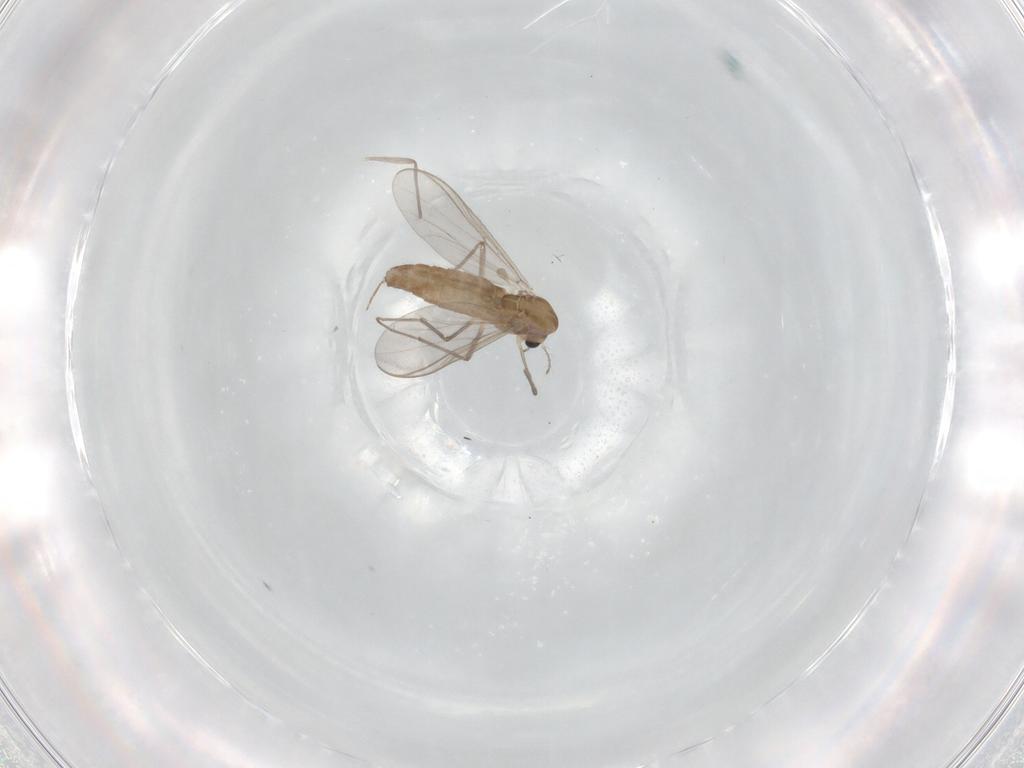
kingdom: Animalia
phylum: Arthropoda
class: Insecta
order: Diptera
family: Chironomidae
